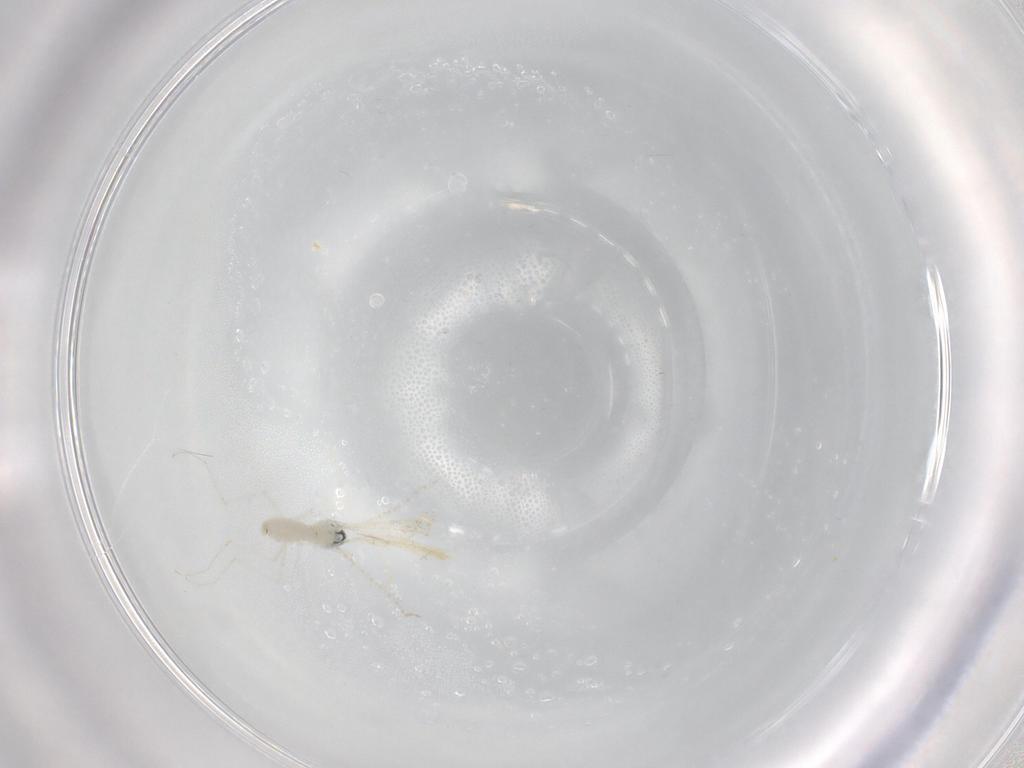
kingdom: Animalia
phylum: Arthropoda
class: Insecta
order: Diptera
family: Cecidomyiidae
